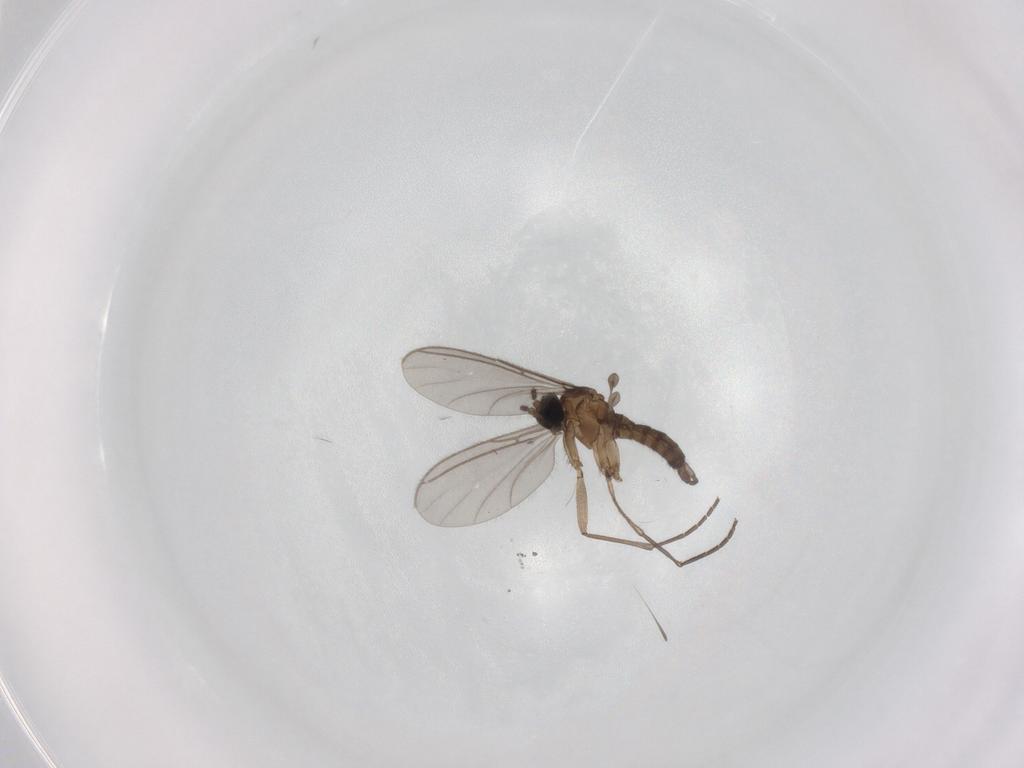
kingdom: Animalia
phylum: Arthropoda
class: Insecta
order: Diptera
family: Sciaridae
